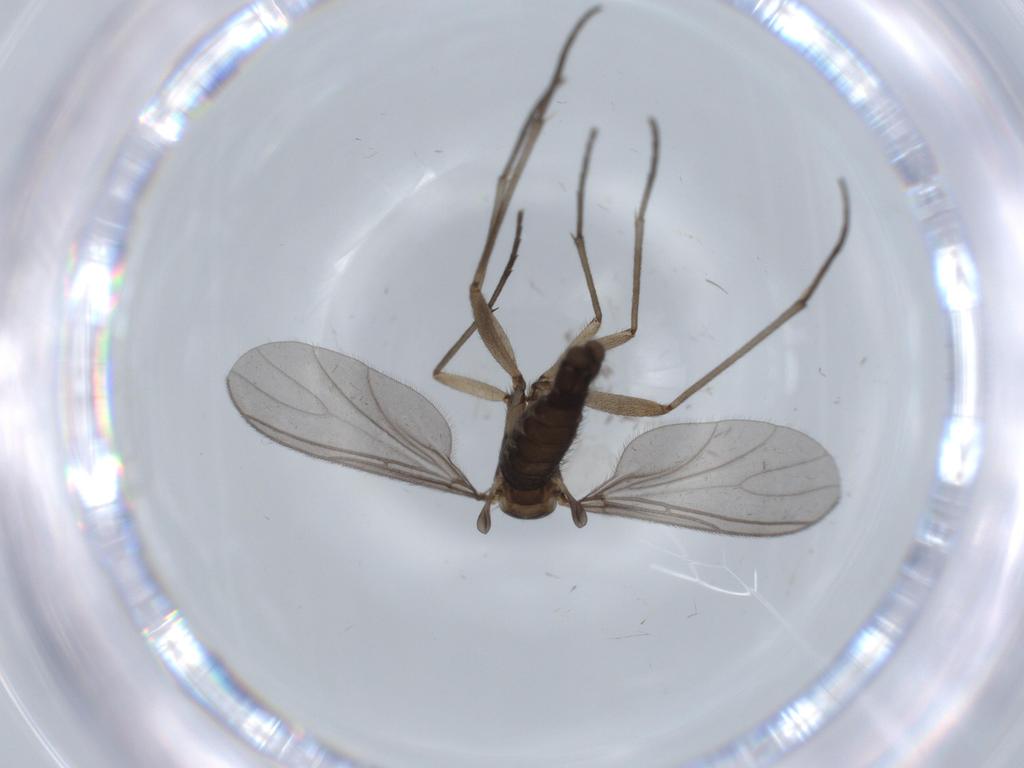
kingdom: Animalia
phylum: Arthropoda
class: Insecta
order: Diptera
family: Sciaridae
